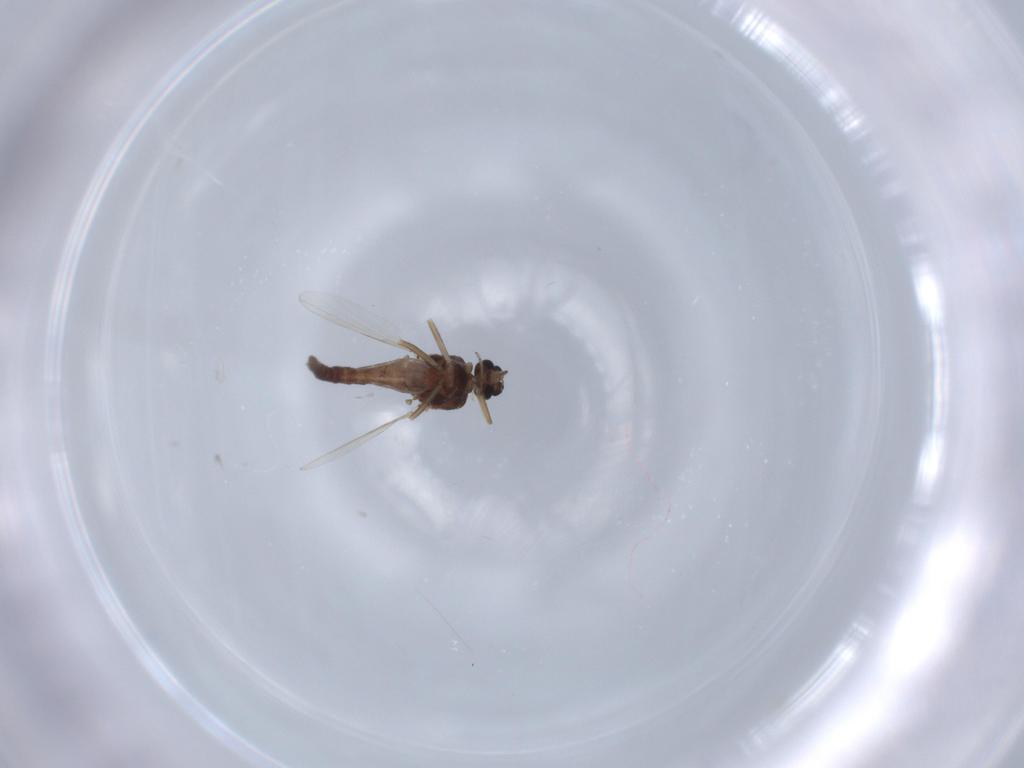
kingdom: Animalia
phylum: Arthropoda
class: Insecta
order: Diptera
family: Ceratopogonidae
